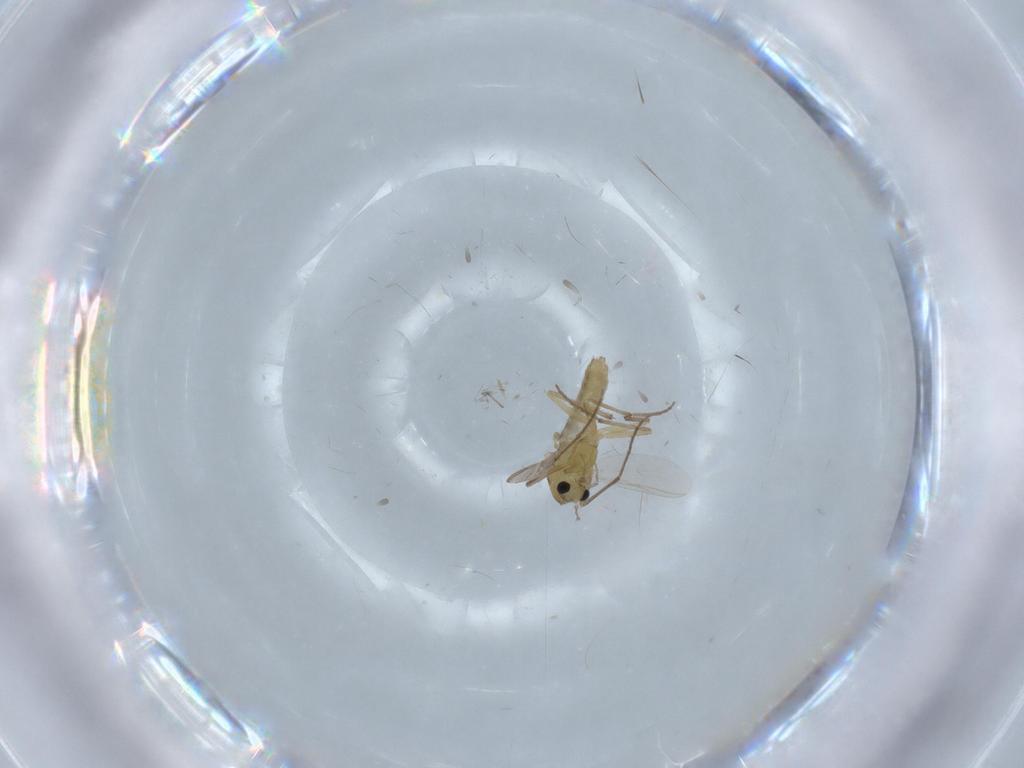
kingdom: Animalia
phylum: Arthropoda
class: Insecta
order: Diptera
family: Chironomidae
